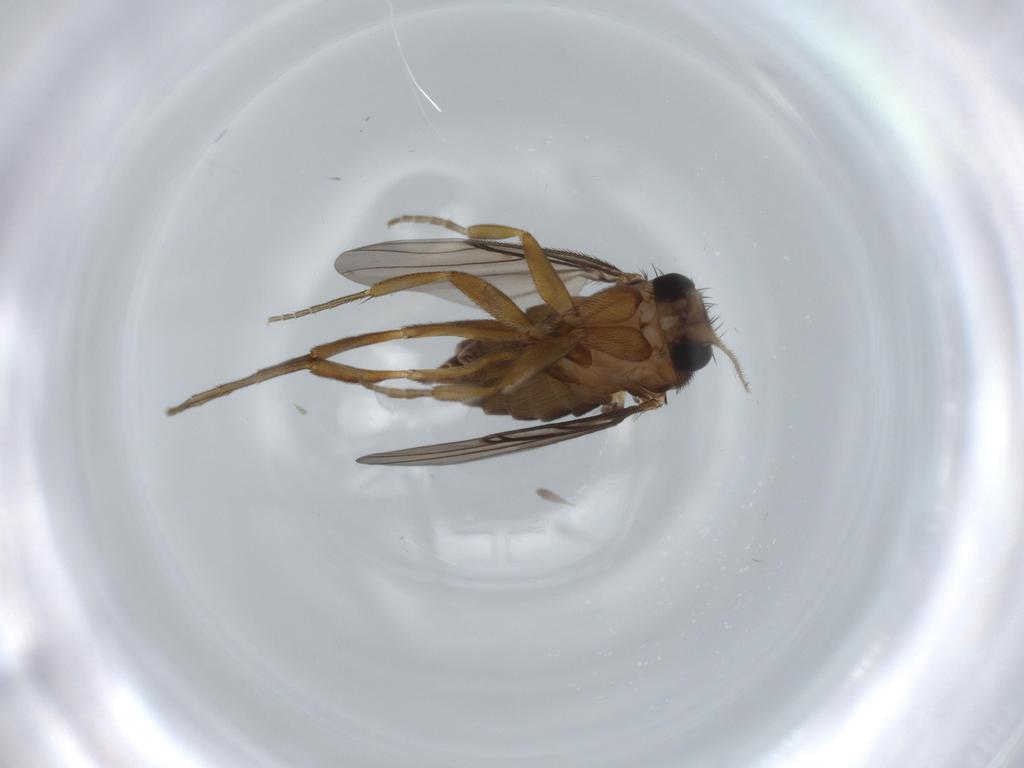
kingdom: Animalia
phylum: Arthropoda
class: Insecta
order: Diptera
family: Phoridae
